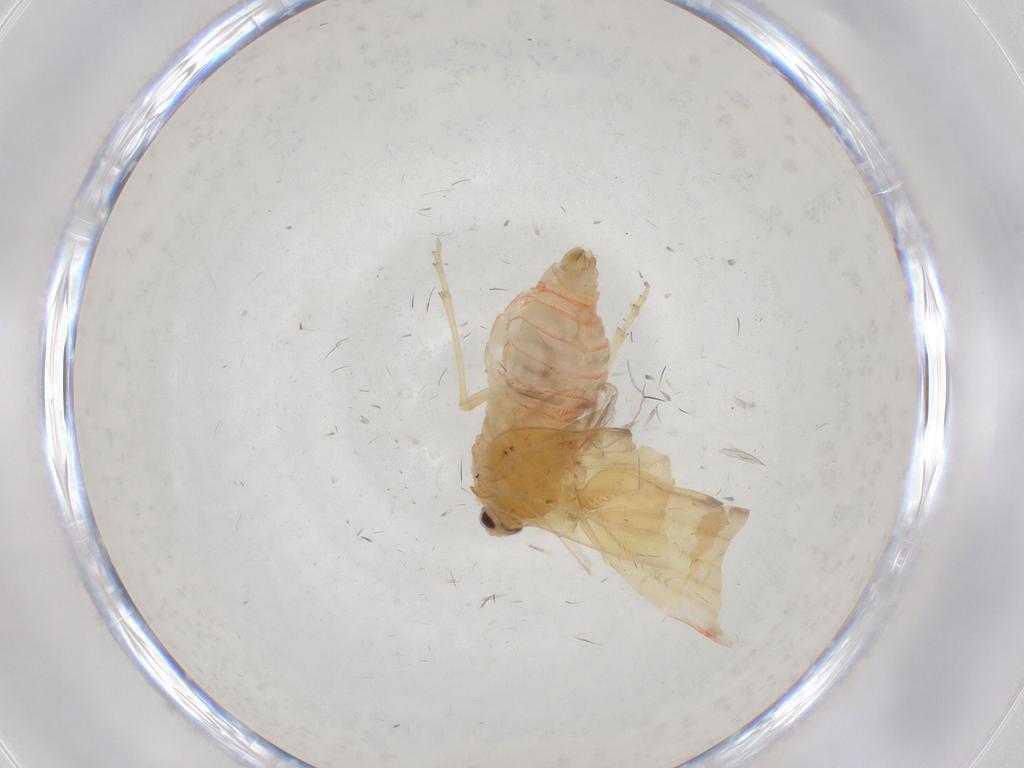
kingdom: Animalia
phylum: Arthropoda
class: Insecta
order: Hemiptera
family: Derbidae
